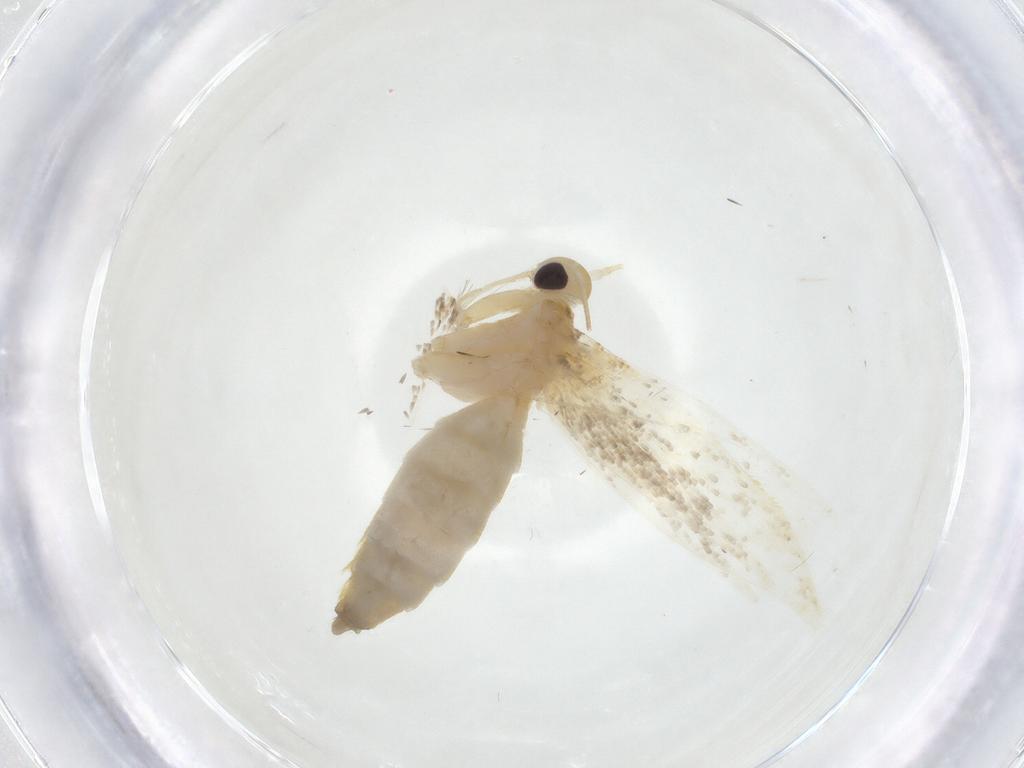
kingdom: Animalia
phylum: Arthropoda
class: Insecta
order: Lepidoptera
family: Erebidae
